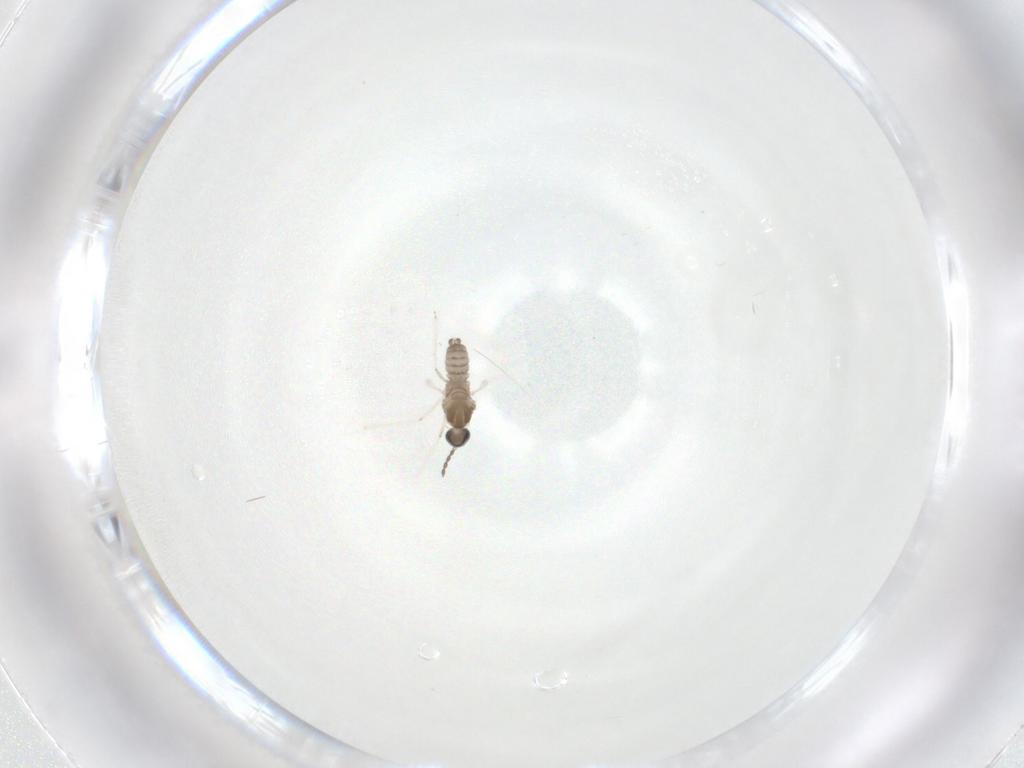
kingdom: Animalia
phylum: Arthropoda
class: Insecta
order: Diptera
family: Cecidomyiidae
